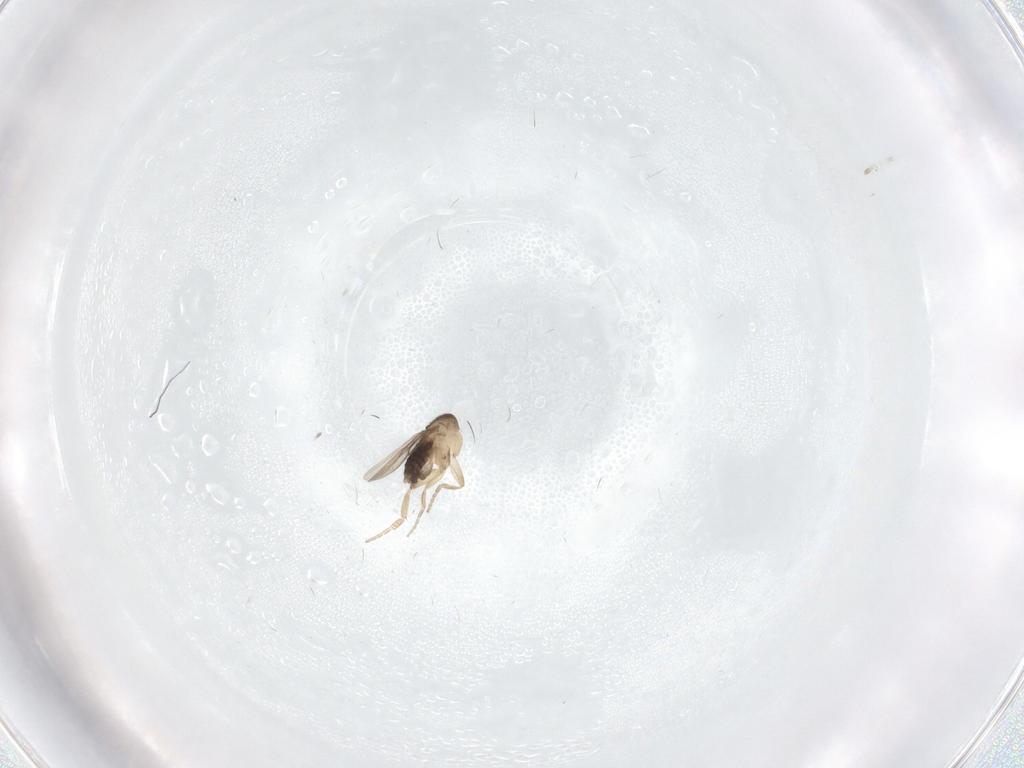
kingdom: Animalia
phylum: Arthropoda
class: Insecta
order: Diptera
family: Phoridae
